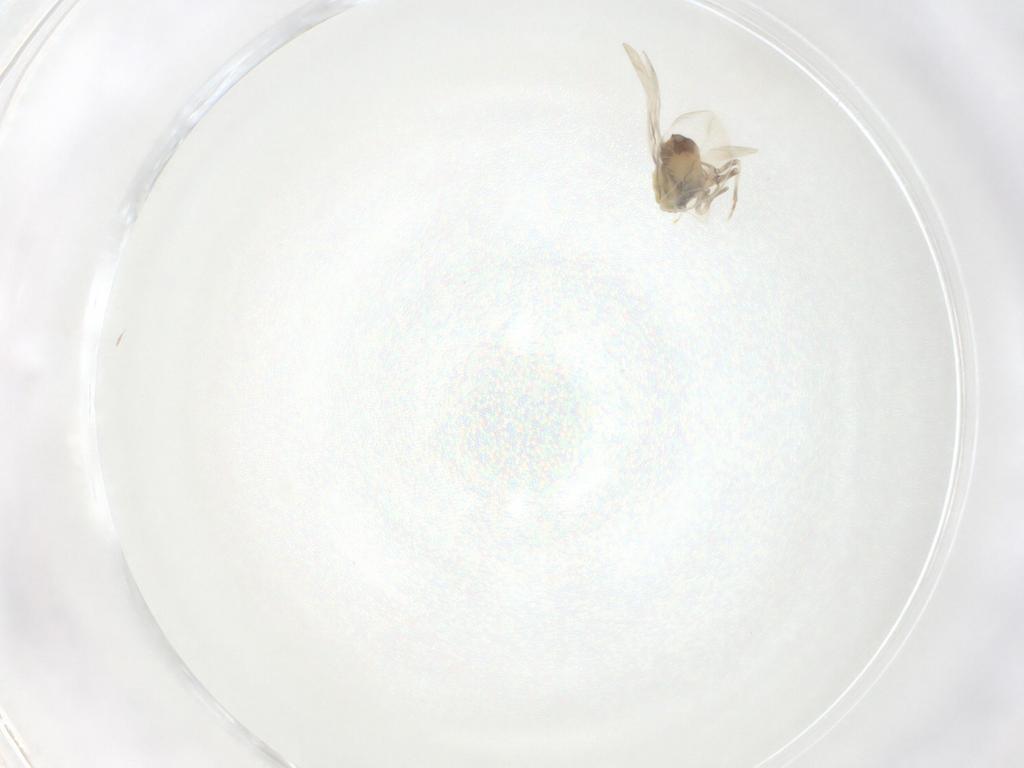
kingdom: Animalia
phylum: Arthropoda
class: Insecta
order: Hemiptera
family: Aleyrodidae
